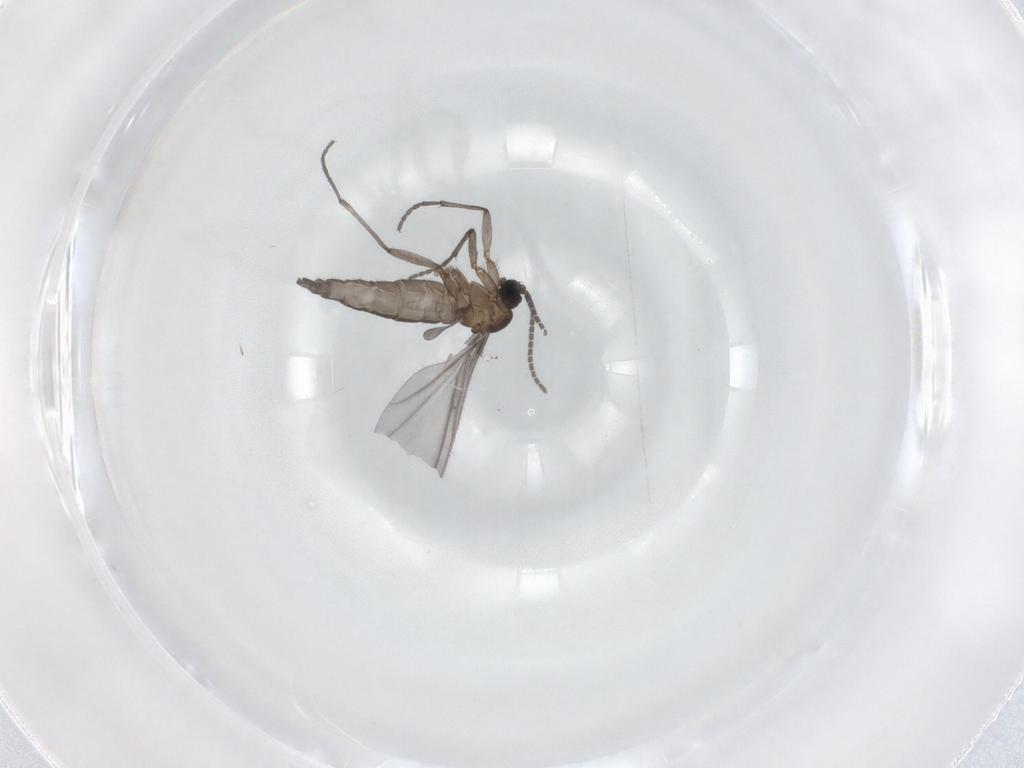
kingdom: Animalia
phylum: Arthropoda
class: Insecta
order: Diptera
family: Sciaridae
